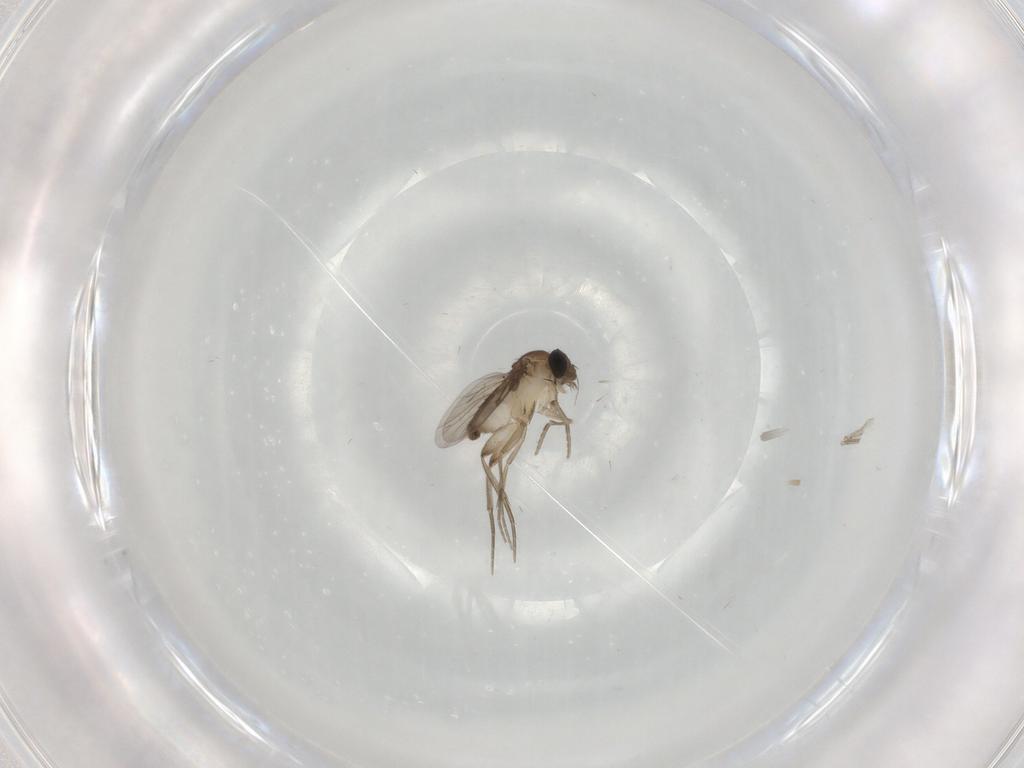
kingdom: Animalia
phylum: Arthropoda
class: Insecta
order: Diptera
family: Phoridae
